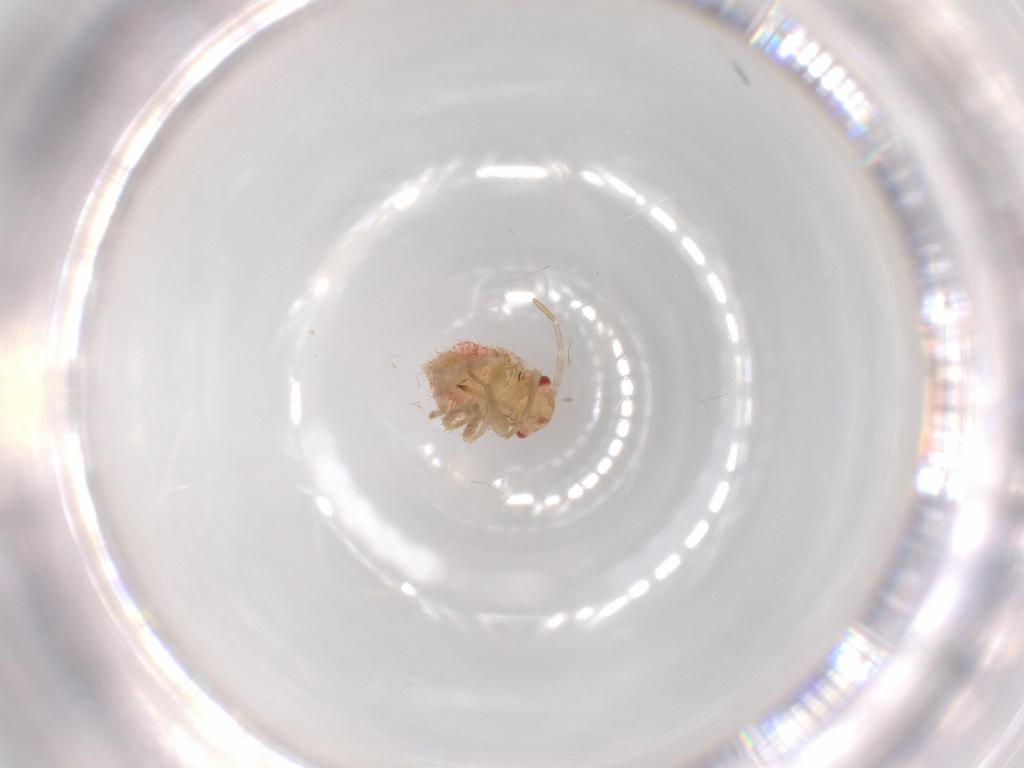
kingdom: Animalia
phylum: Arthropoda
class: Insecta
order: Hemiptera
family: Miridae
